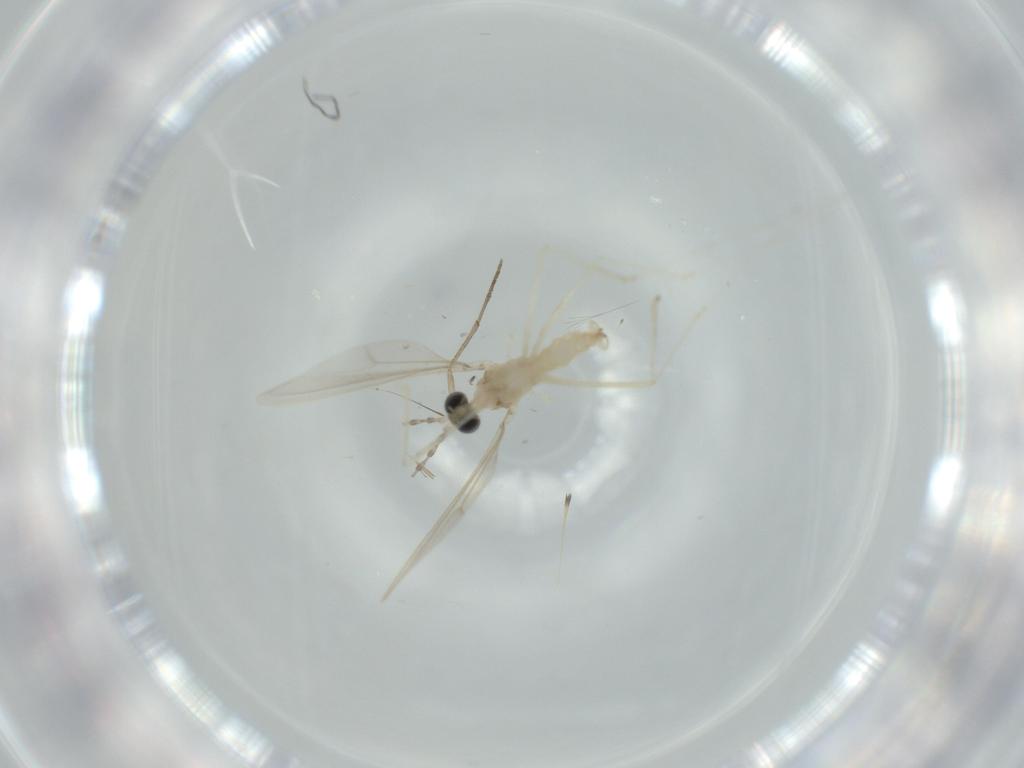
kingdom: Animalia
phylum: Arthropoda
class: Insecta
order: Diptera
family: Cecidomyiidae
